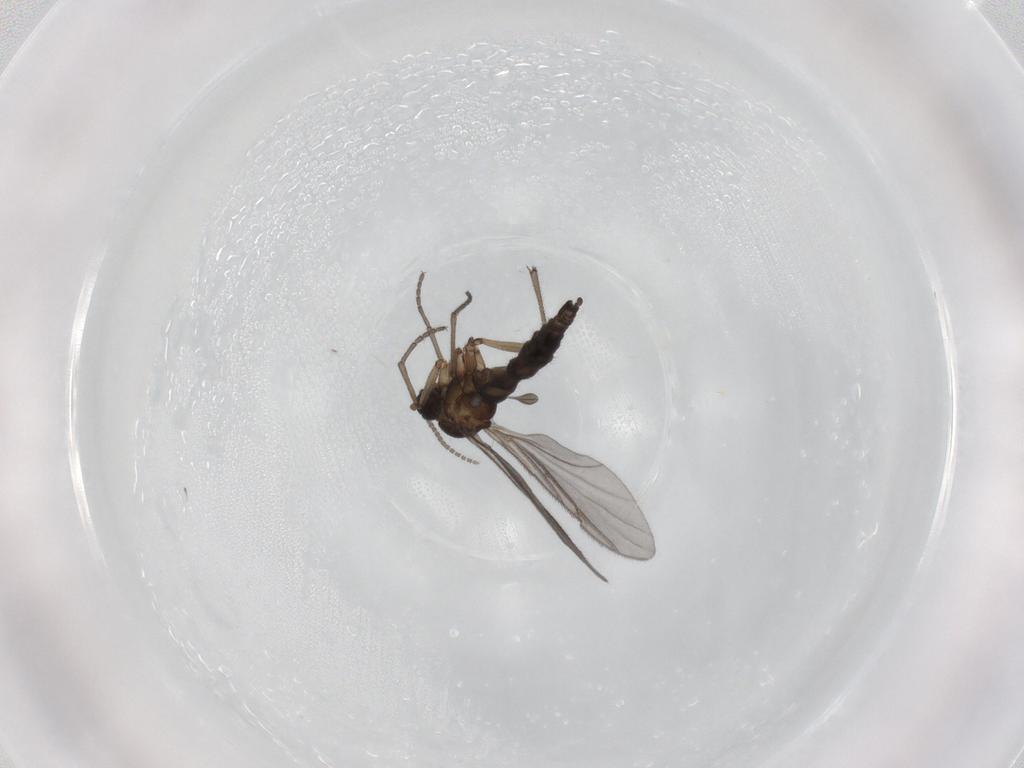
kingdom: Animalia
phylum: Arthropoda
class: Insecta
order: Diptera
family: Sciaridae
